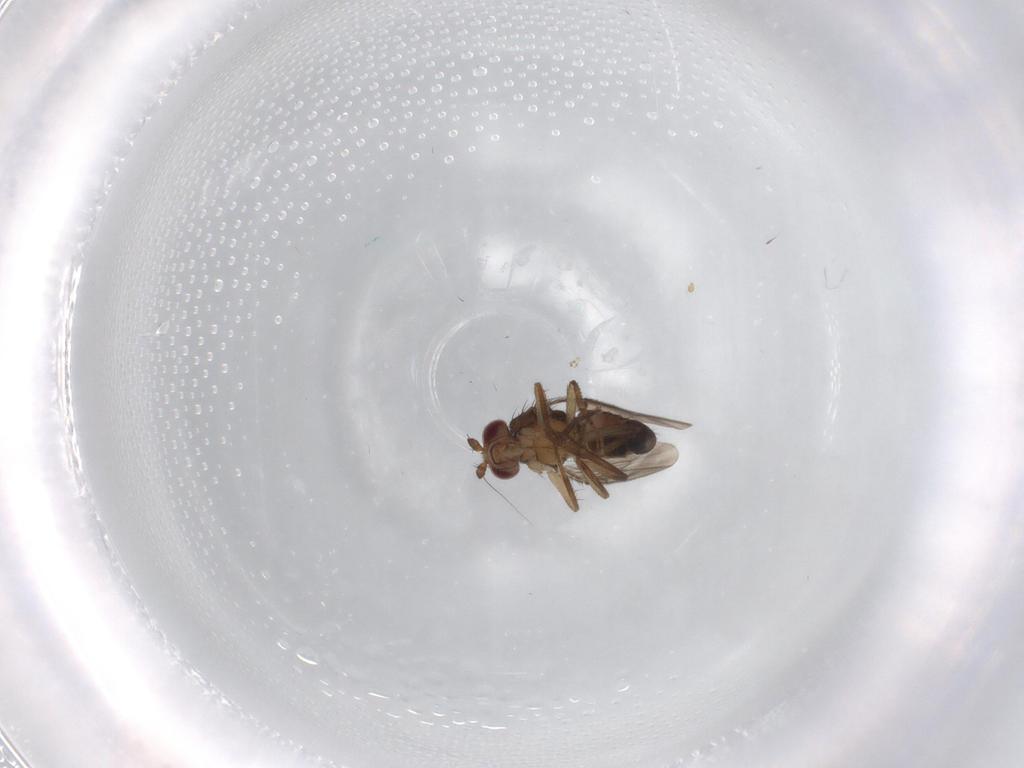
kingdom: Animalia
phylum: Arthropoda
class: Insecta
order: Diptera
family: Sphaeroceridae
